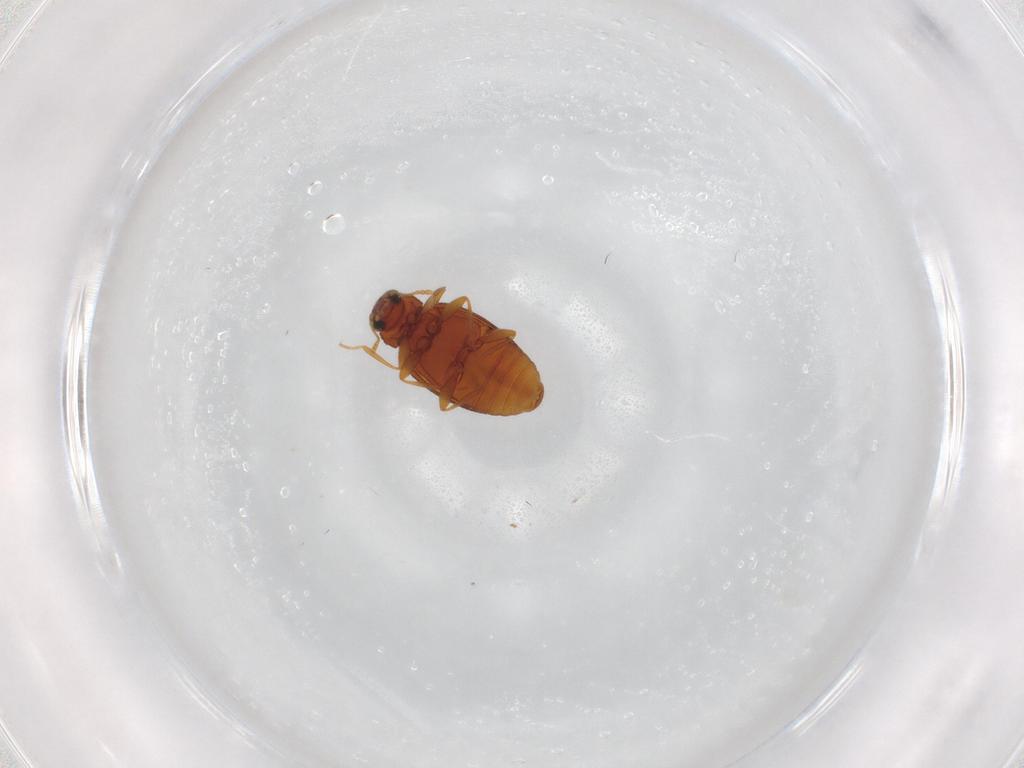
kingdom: Animalia
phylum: Arthropoda
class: Insecta
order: Coleoptera
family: Latridiidae
